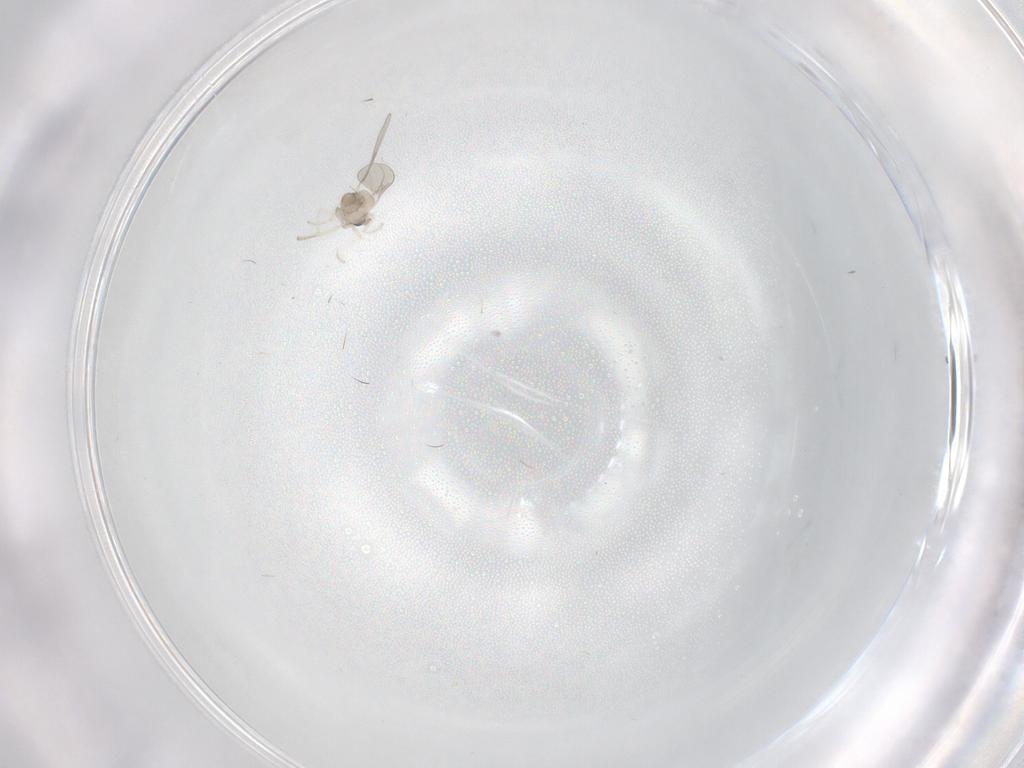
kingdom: Animalia
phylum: Arthropoda
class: Insecta
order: Diptera
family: Cecidomyiidae
